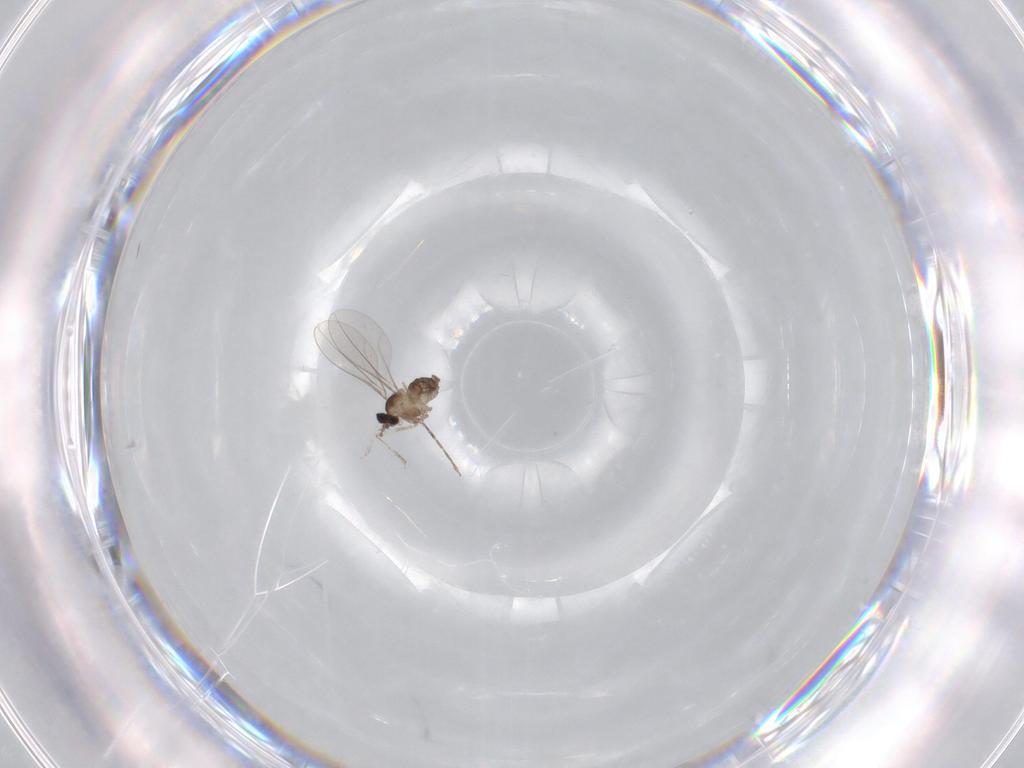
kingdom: Animalia
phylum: Arthropoda
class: Insecta
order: Diptera
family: Cecidomyiidae
